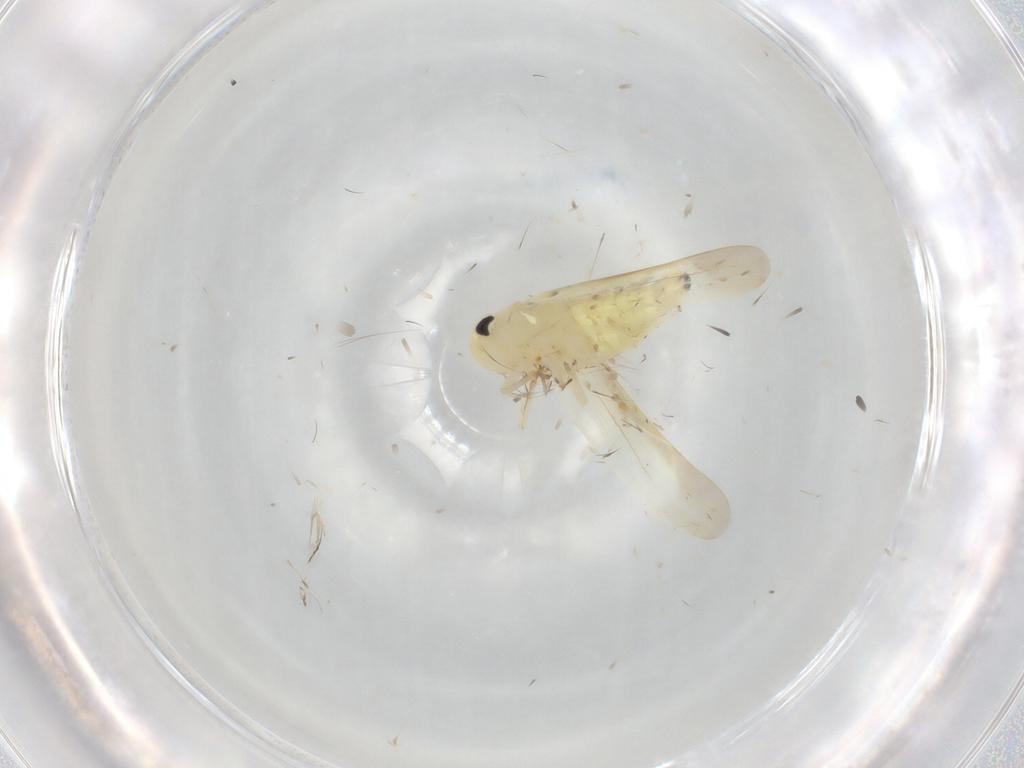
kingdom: Animalia
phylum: Arthropoda
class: Insecta
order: Hemiptera
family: Cicadellidae
